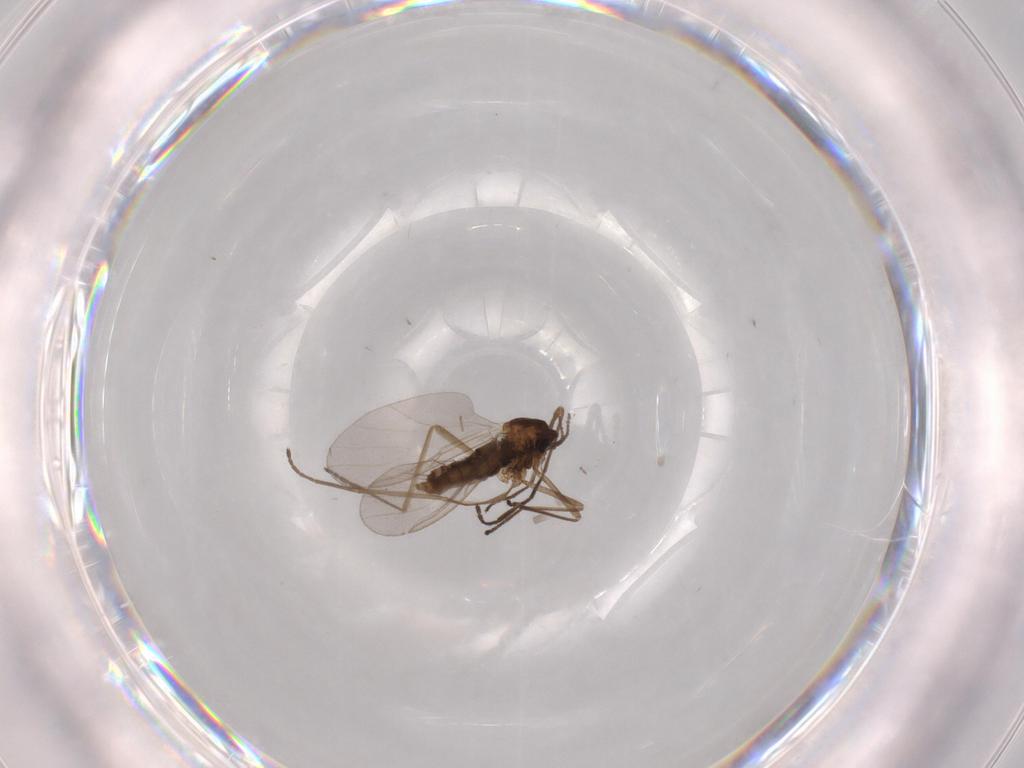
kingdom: Animalia
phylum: Arthropoda
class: Insecta
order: Diptera
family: Cecidomyiidae
